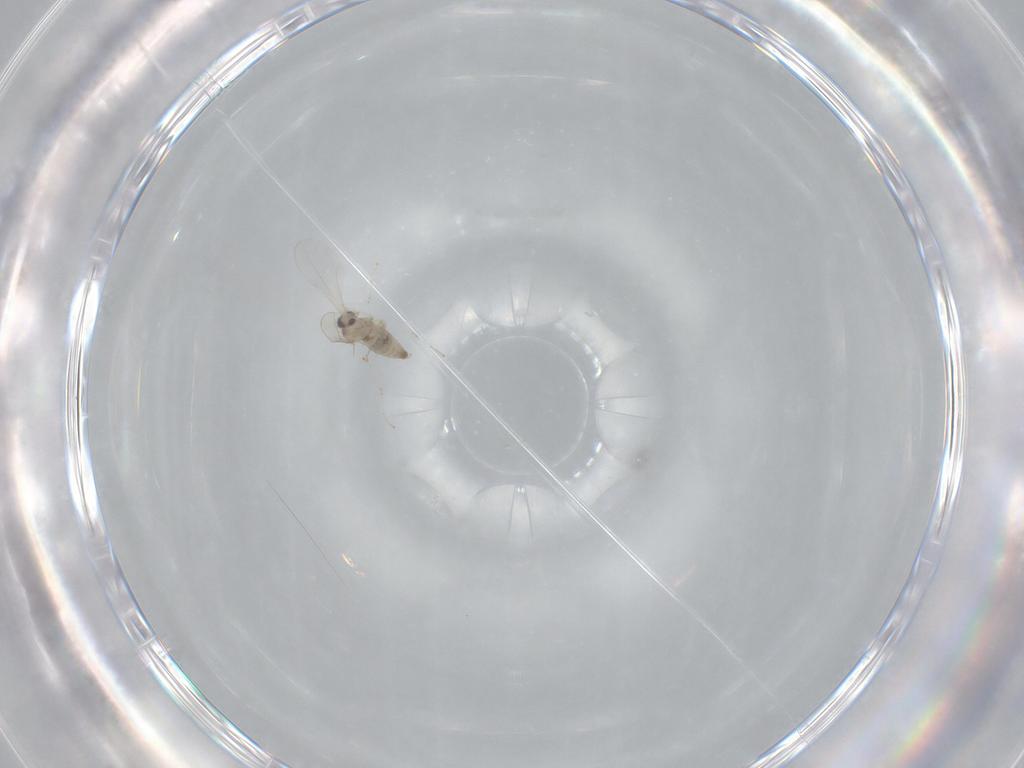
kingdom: Animalia
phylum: Arthropoda
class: Insecta
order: Diptera
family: Cecidomyiidae
